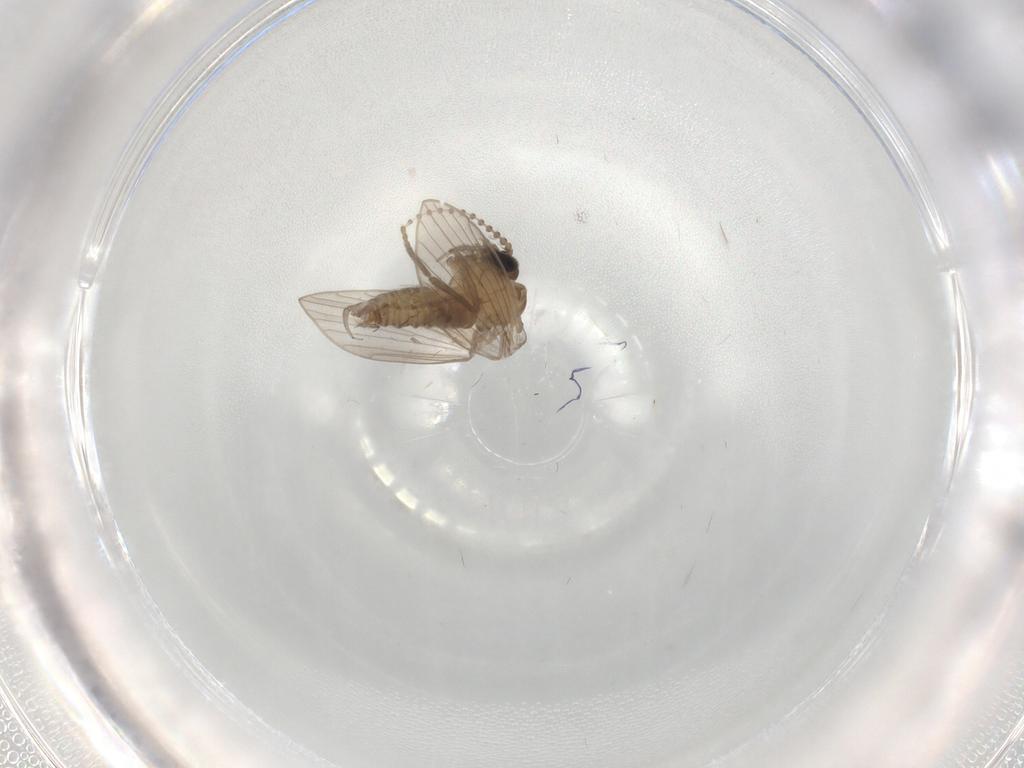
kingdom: Animalia
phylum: Arthropoda
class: Insecta
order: Diptera
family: Psychodidae
